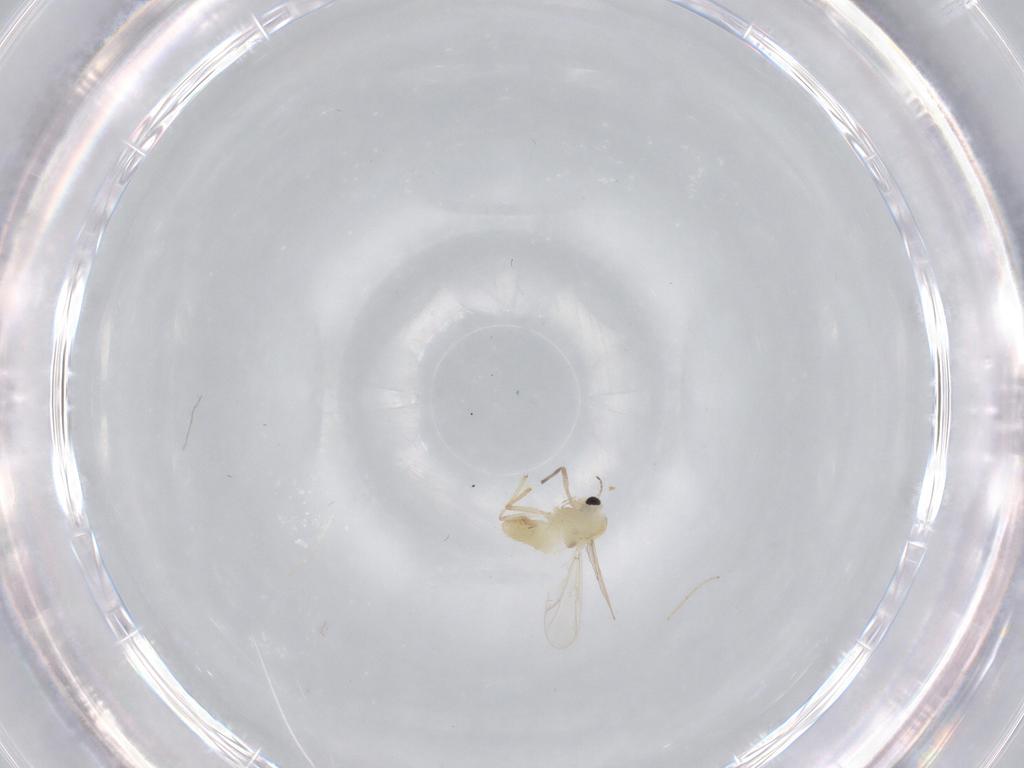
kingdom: Animalia
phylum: Arthropoda
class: Insecta
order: Diptera
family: Chironomidae
